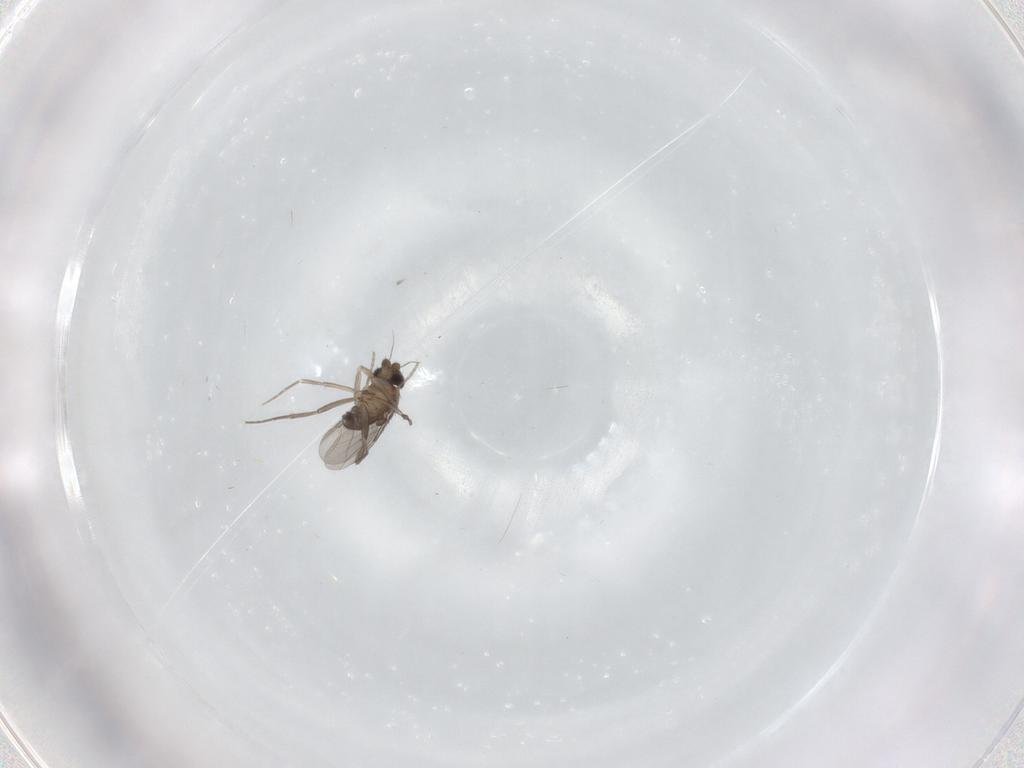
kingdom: Animalia
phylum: Arthropoda
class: Insecta
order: Diptera
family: Phoridae
